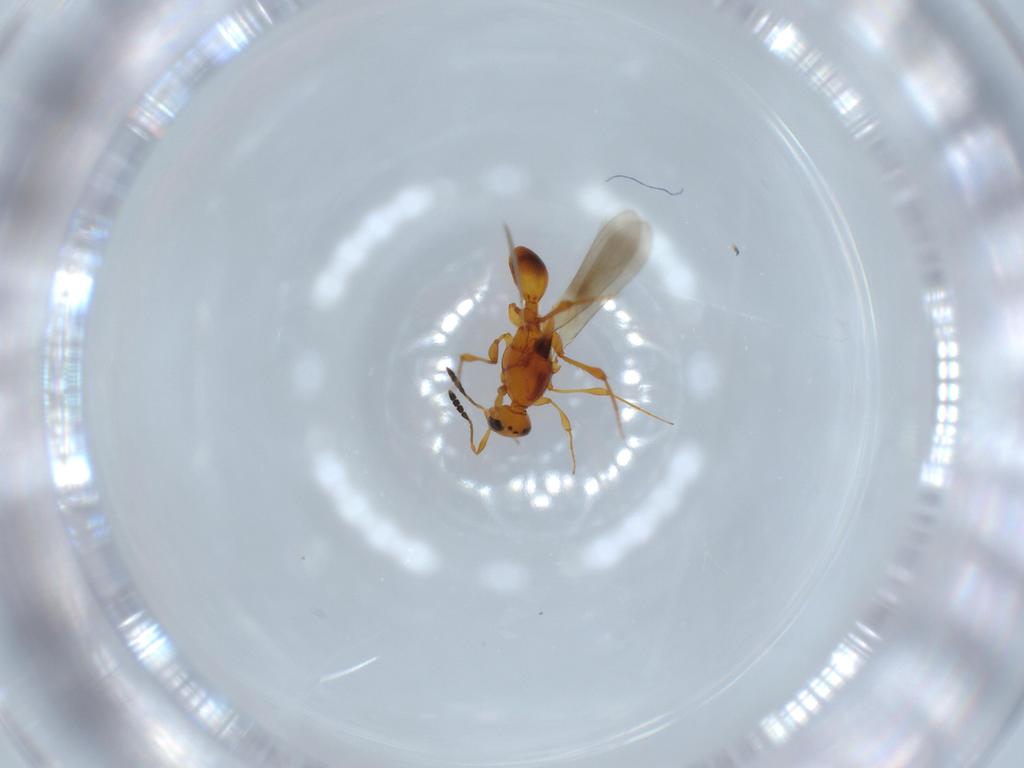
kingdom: Animalia
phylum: Arthropoda
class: Insecta
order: Hymenoptera
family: Platygastridae
